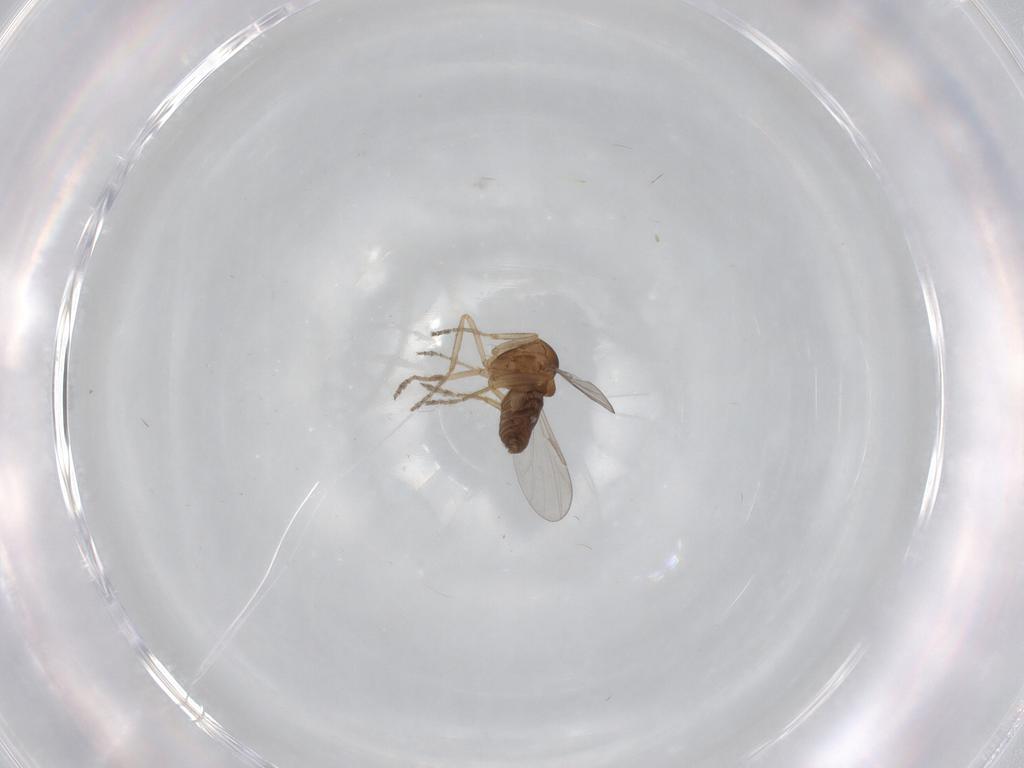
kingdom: Animalia
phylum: Arthropoda
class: Insecta
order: Diptera
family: Ceratopogonidae
